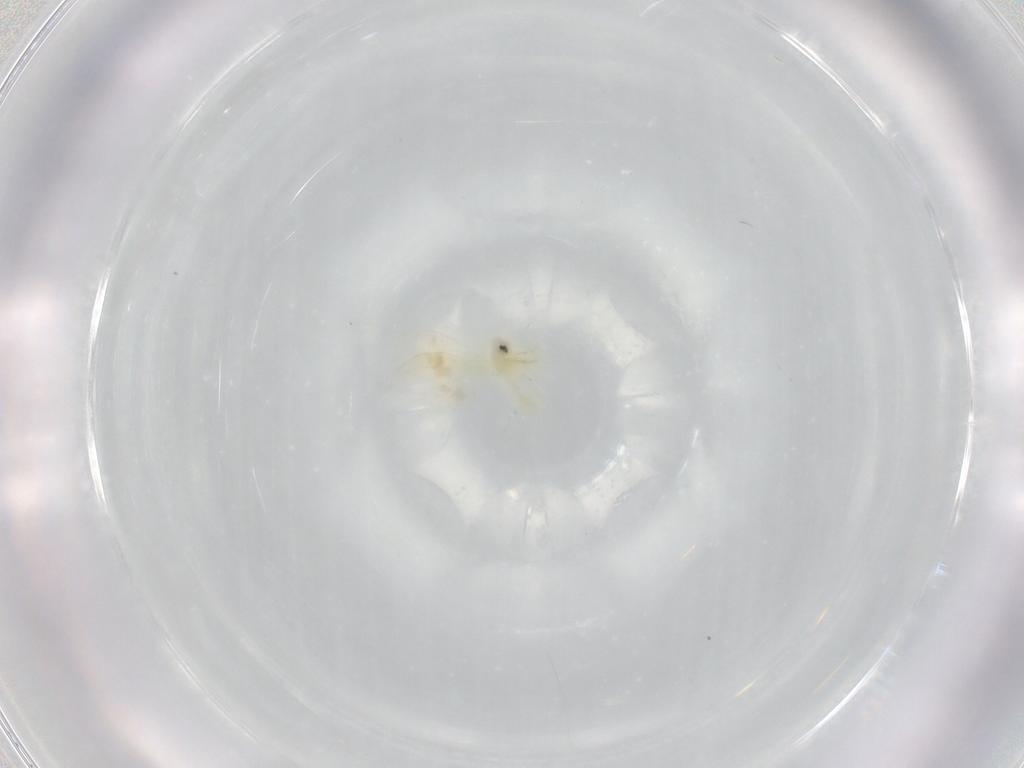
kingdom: Animalia
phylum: Arthropoda
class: Insecta
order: Hemiptera
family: Aleyrodidae
